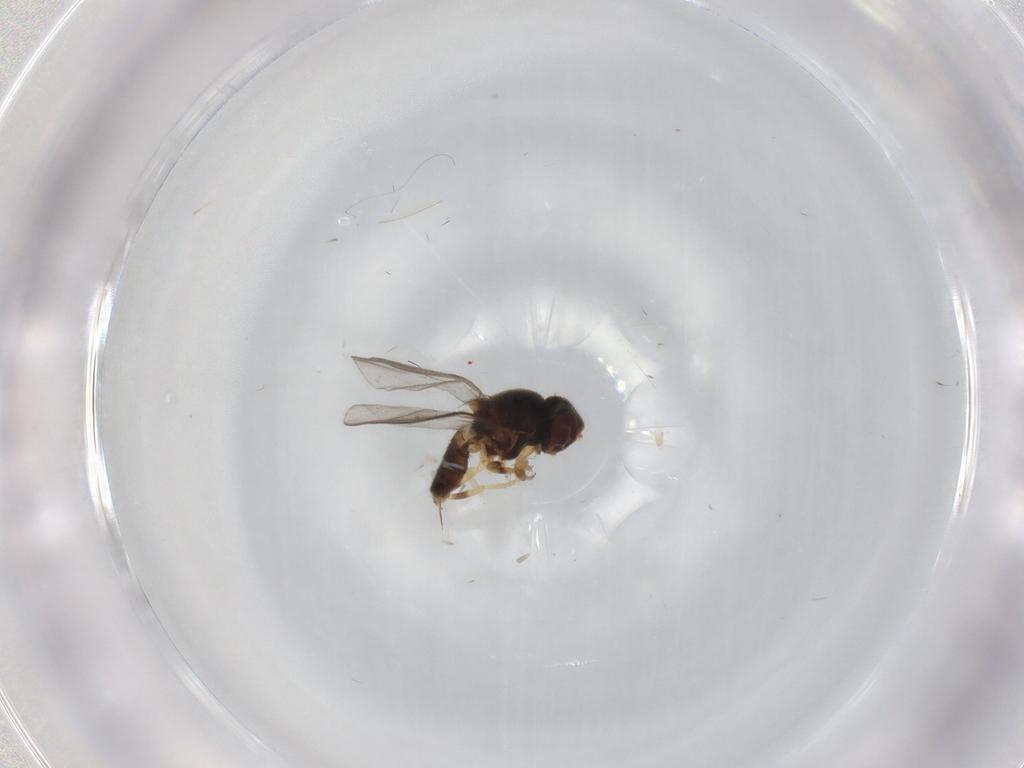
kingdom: Animalia
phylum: Arthropoda
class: Insecta
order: Diptera
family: Chloropidae
